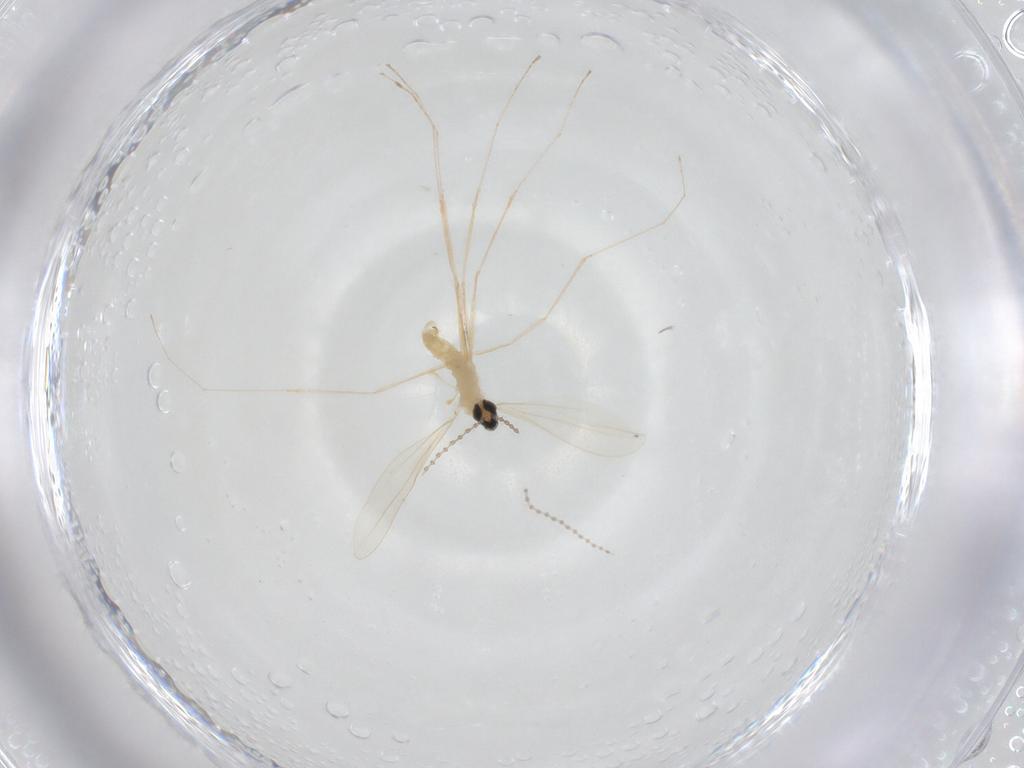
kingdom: Animalia
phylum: Arthropoda
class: Insecta
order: Diptera
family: Cecidomyiidae
